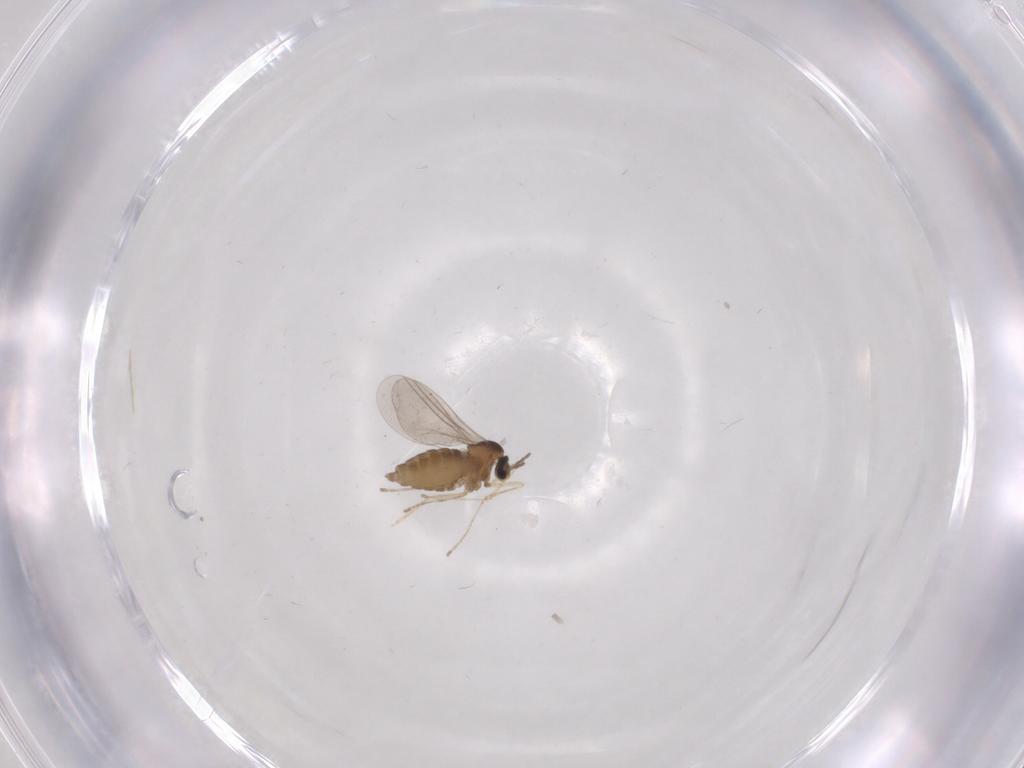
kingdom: Animalia
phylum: Arthropoda
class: Insecta
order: Diptera
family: Cecidomyiidae
